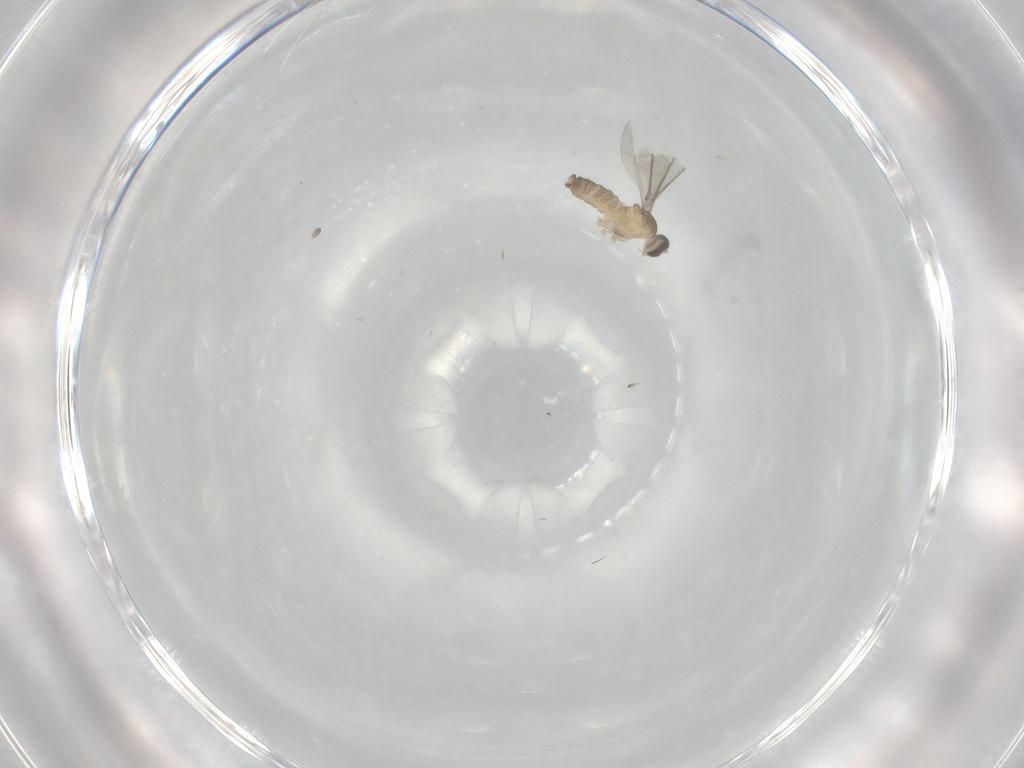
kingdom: Animalia
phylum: Arthropoda
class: Insecta
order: Diptera
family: Cecidomyiidae
